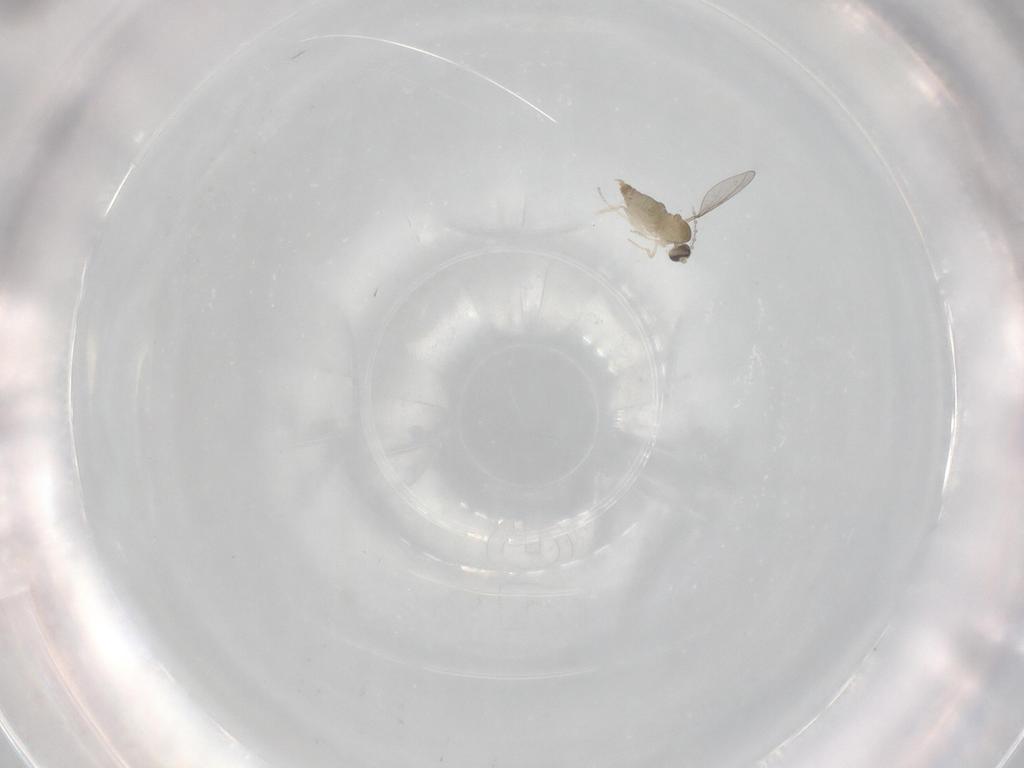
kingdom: Animalia
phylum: Arthropoda
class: Insecta
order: Diptera
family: Cecidomyiidae
